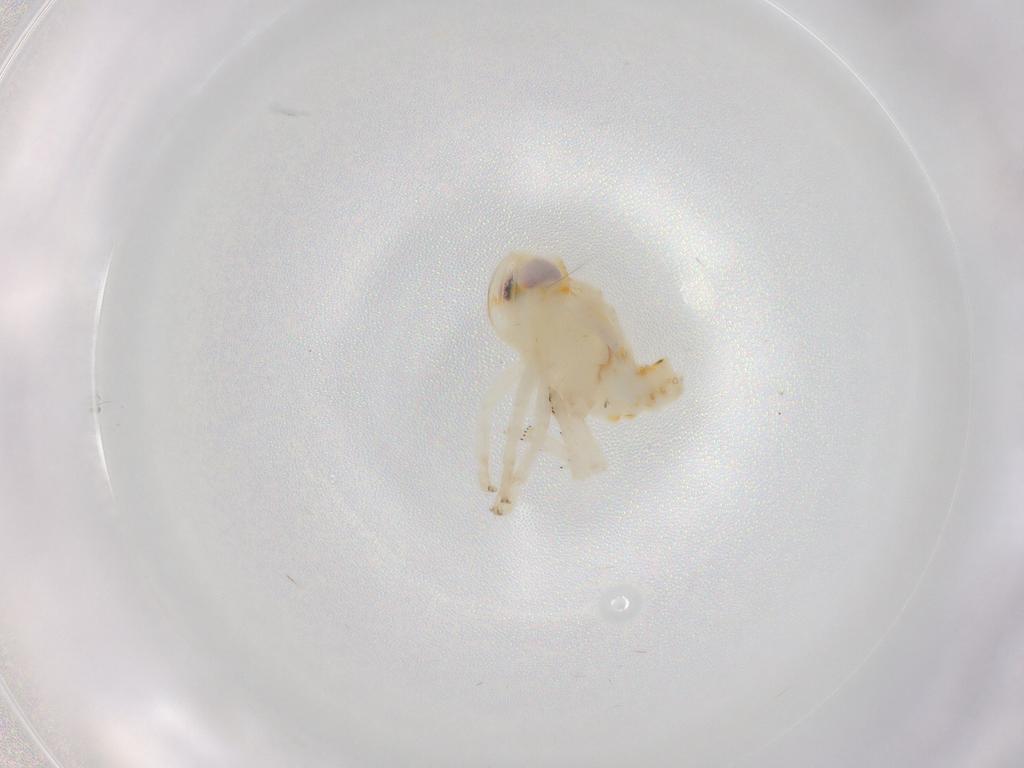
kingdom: Animalia
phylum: Arthropoda
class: Insecta
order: Hemiptera
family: Nogodinidae
